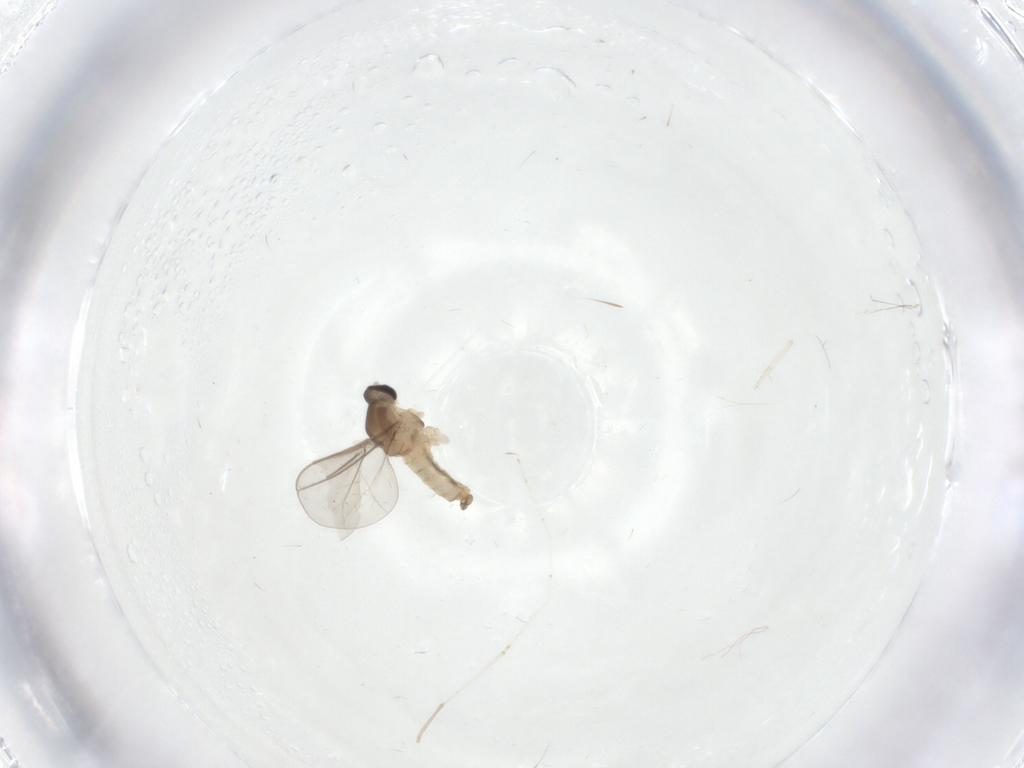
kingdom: Animalia
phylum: Arthropoda
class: Insecta
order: Diptera
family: Cecidomyiidae
